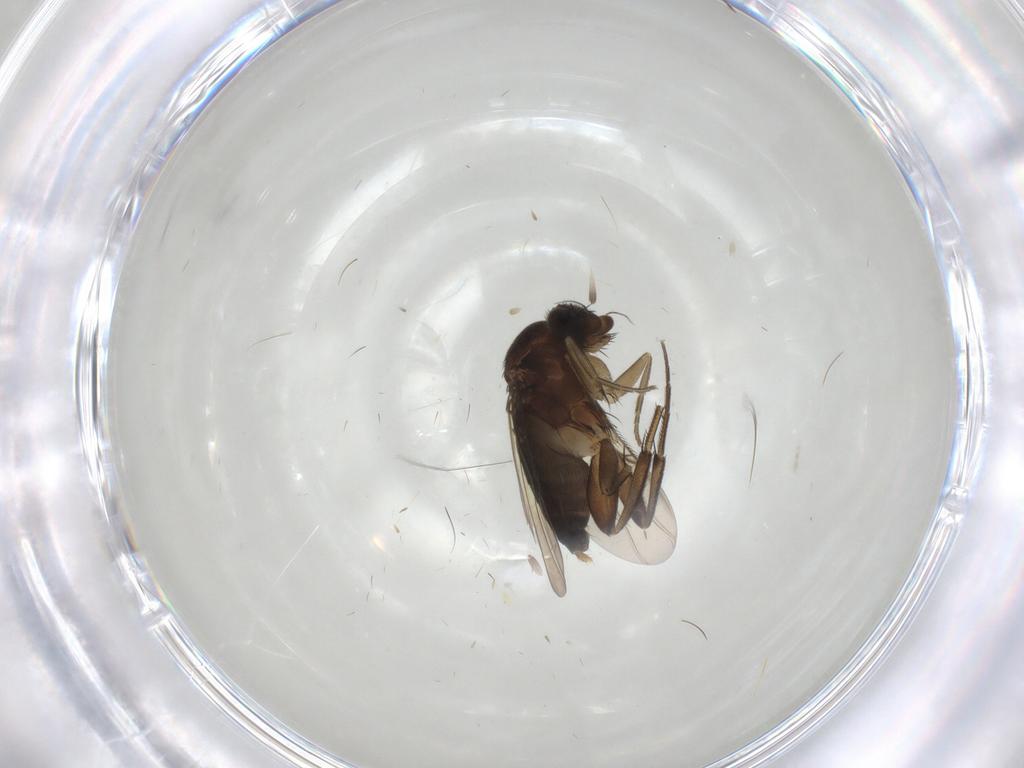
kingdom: Animalia
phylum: Arthropoda
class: Insecta
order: Diptera
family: Phoridae
